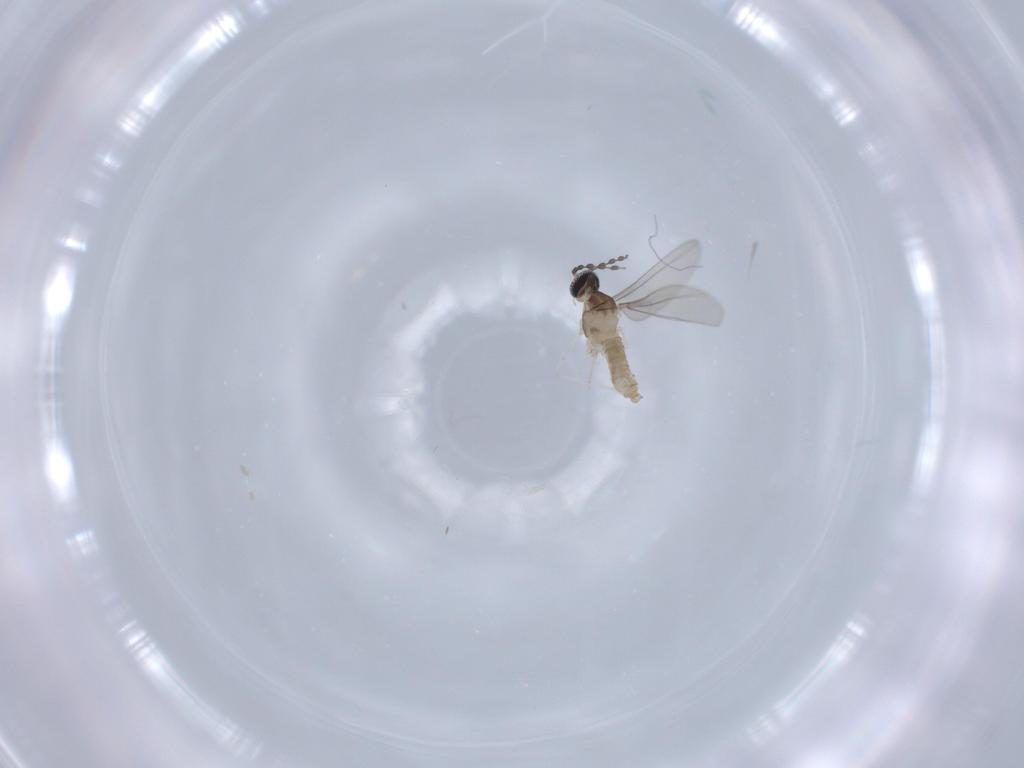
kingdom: Animalia
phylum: Arthropoda
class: Insecta
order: Diptera
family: Cecidomyiidae
